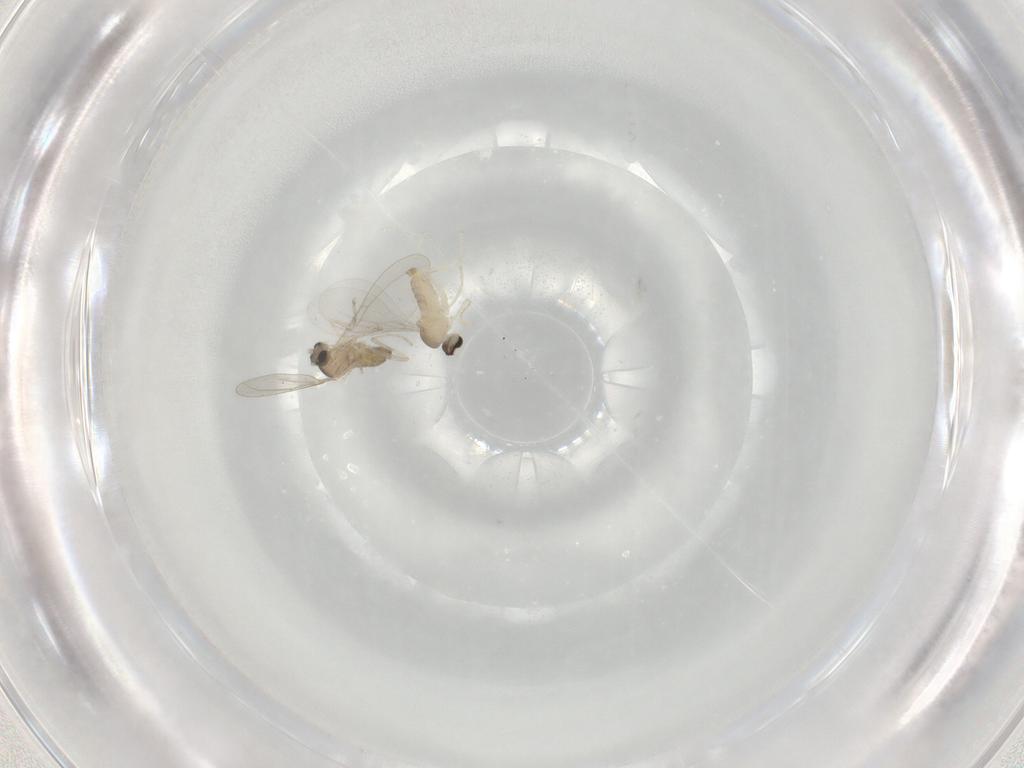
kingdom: Animalia
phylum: Arthropoda
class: Insecta
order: Diptera
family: Cecidomyiidae
